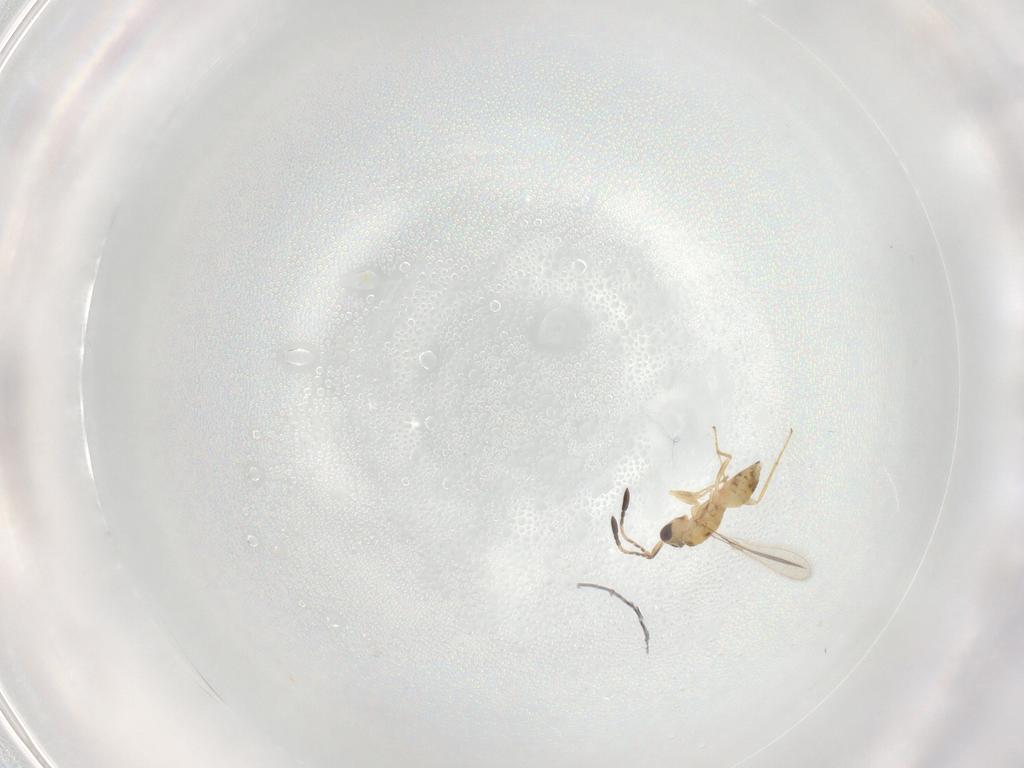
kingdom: Animalia
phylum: Arthropoda
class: Insecta
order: Hymenoptera
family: Encyrtidae
